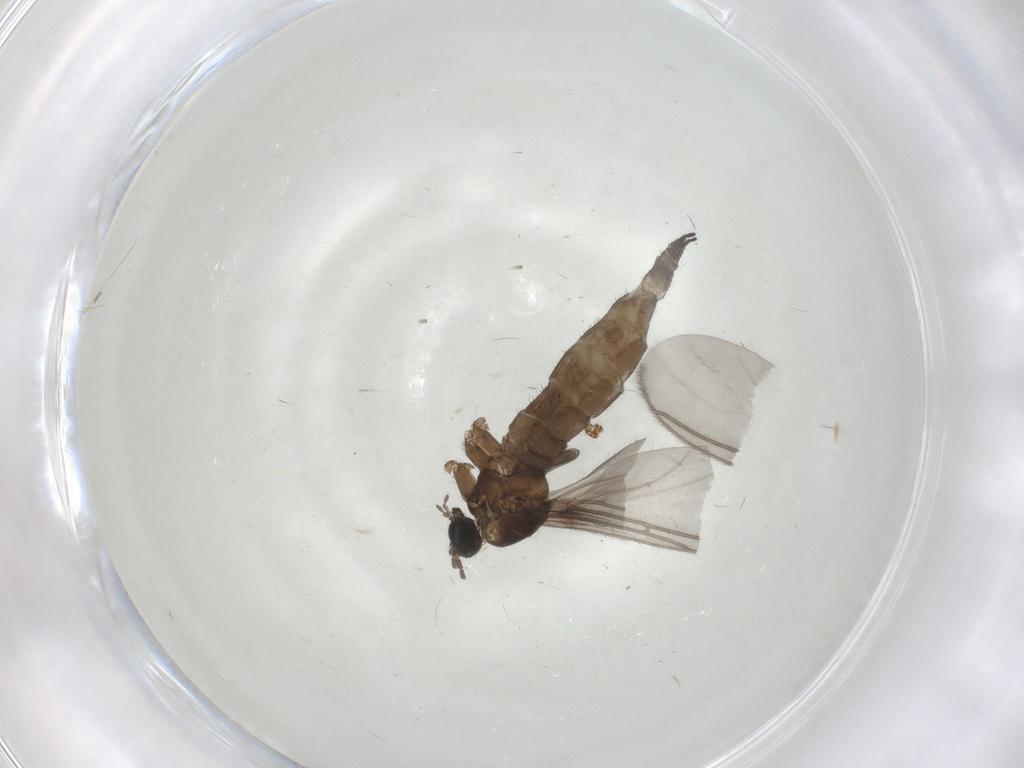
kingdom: Animalia
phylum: Arthropoda
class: Insecta
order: Diptera
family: Sciaridae
